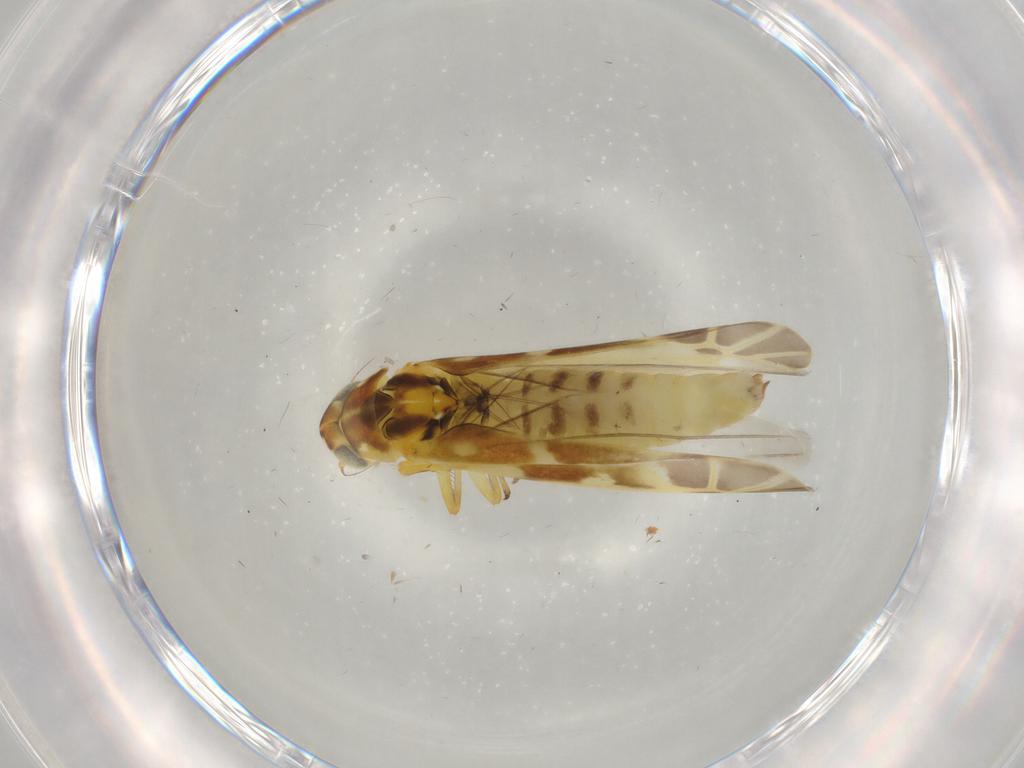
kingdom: Animalia
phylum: Arthropoda
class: Insecta
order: Hemiptera
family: Cicadellidae
